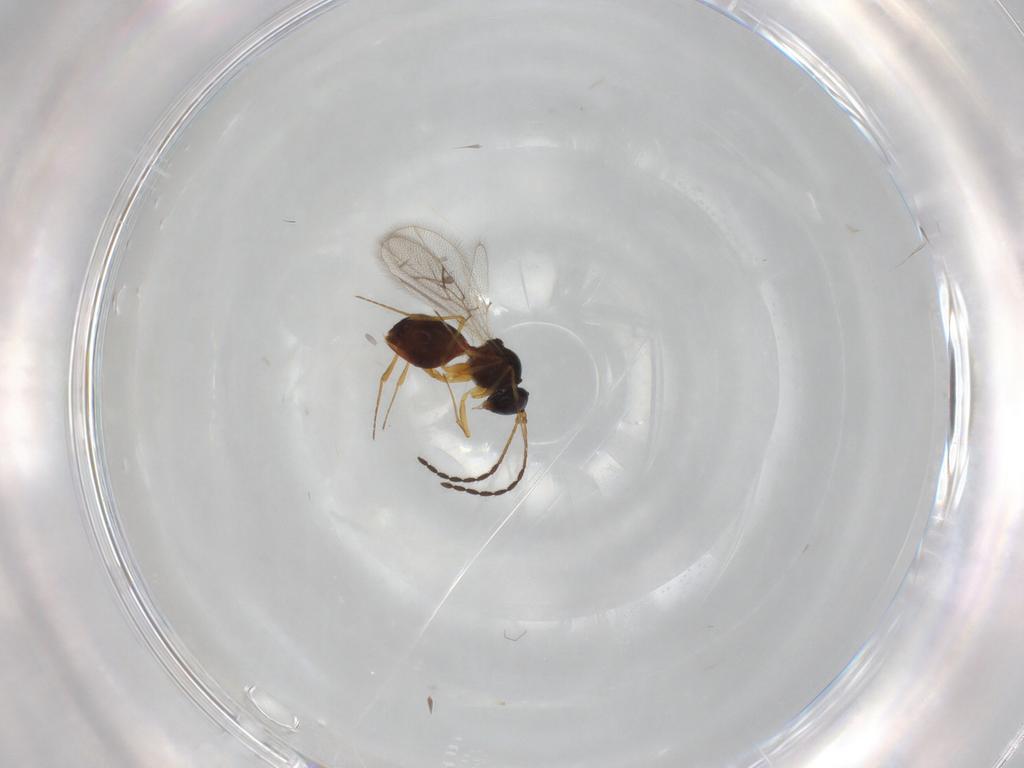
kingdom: Animalia
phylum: Arthropoda
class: Insecta
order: Hymenoptera
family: Figitidae
